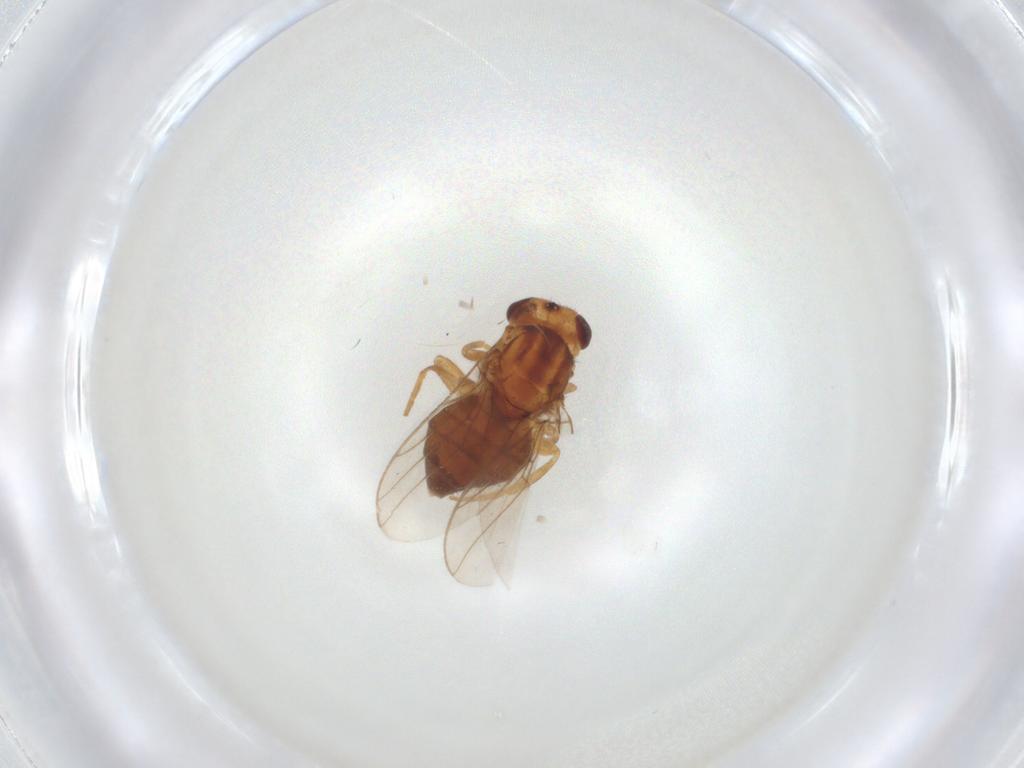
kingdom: Animalia
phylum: Arthropoda
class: Insecta
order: Diptera
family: Chloropidae
